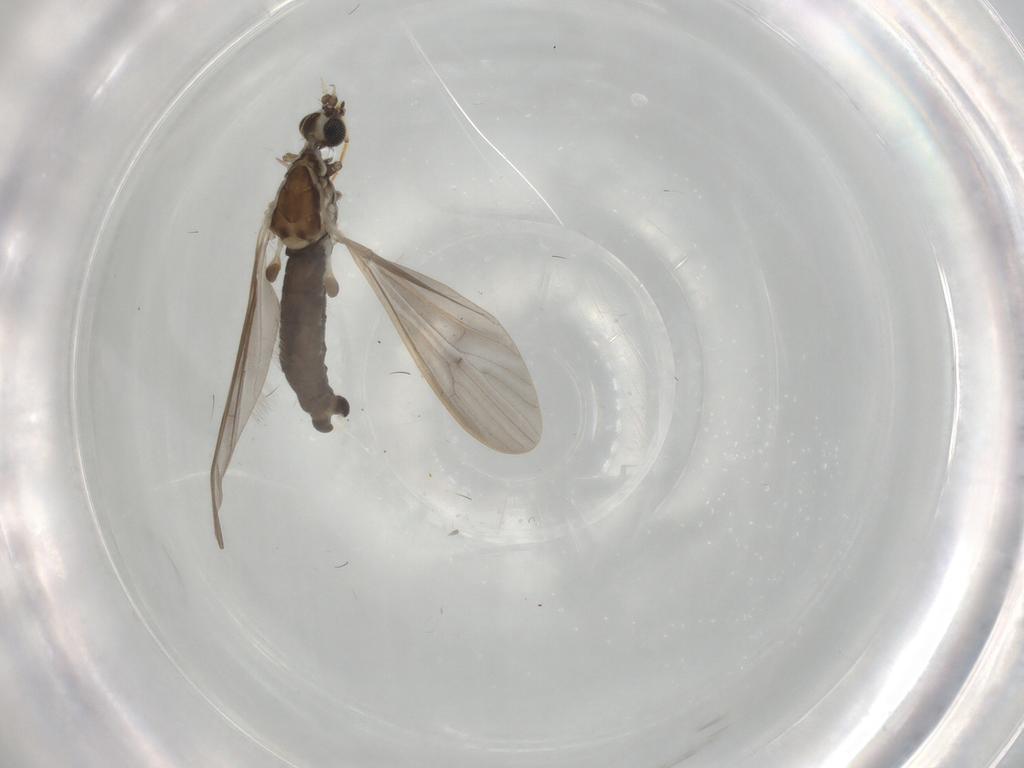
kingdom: Animalia
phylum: Arthropoda
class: Insecta
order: Diptera
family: Limoniidae
